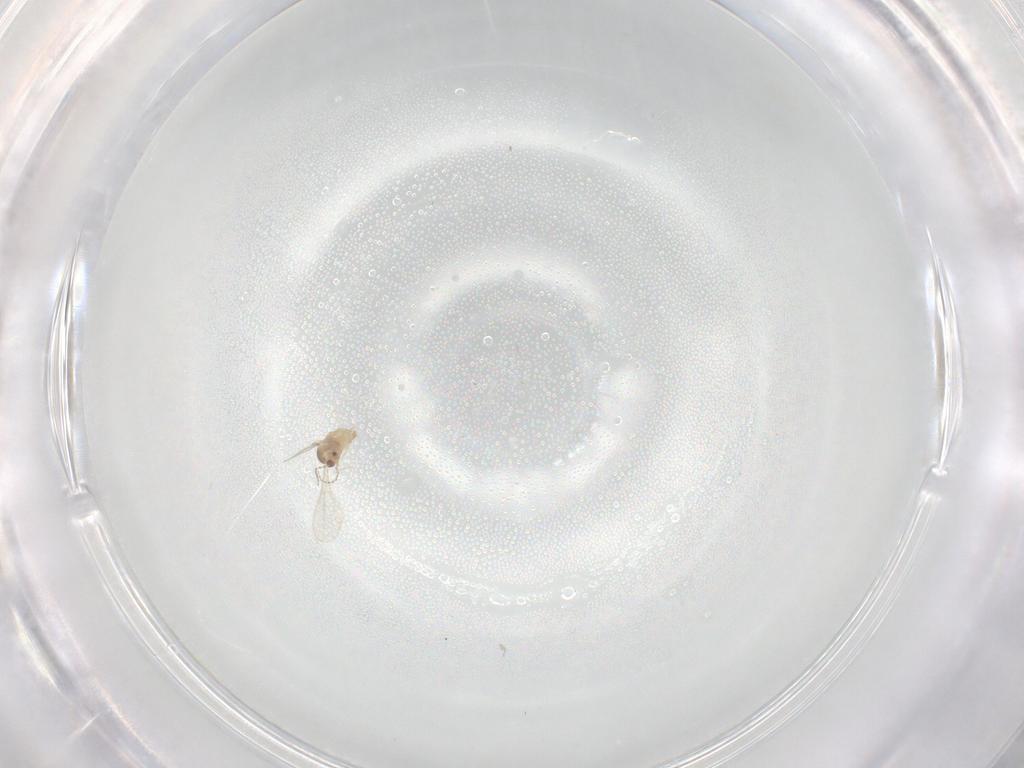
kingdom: Animalia
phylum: Arthropoda
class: Insecta
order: Diptera
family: Cecidomyiidae
